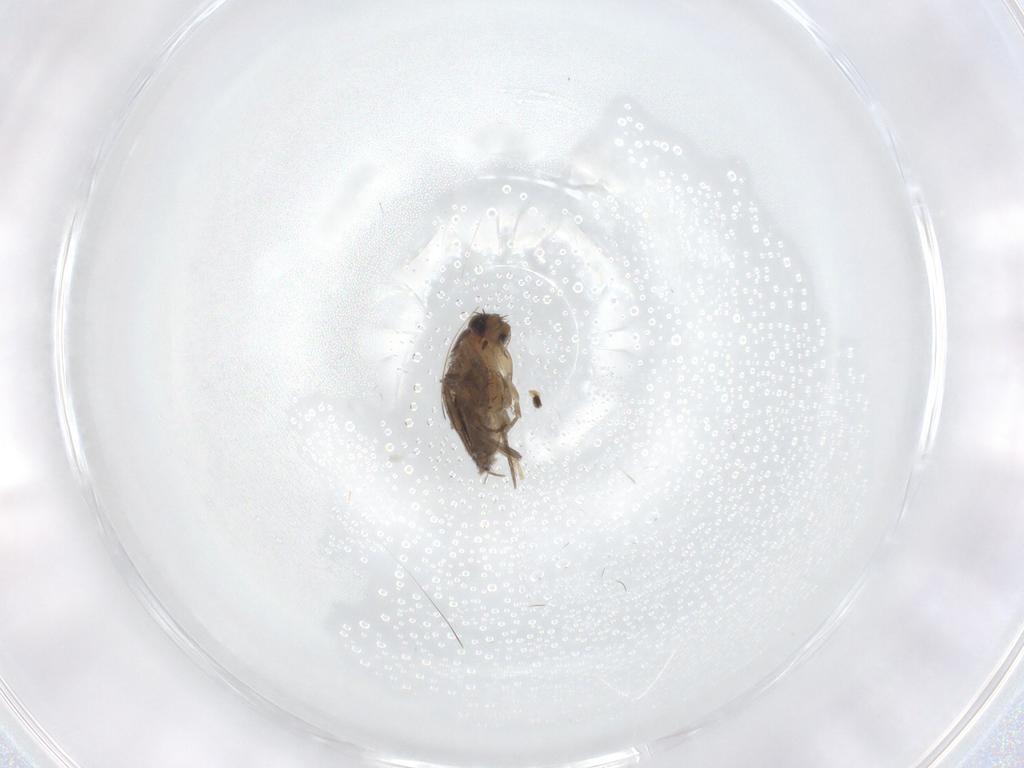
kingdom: Animalia
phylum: Arthropoda
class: Insecta
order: Diptera
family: Phoridae
